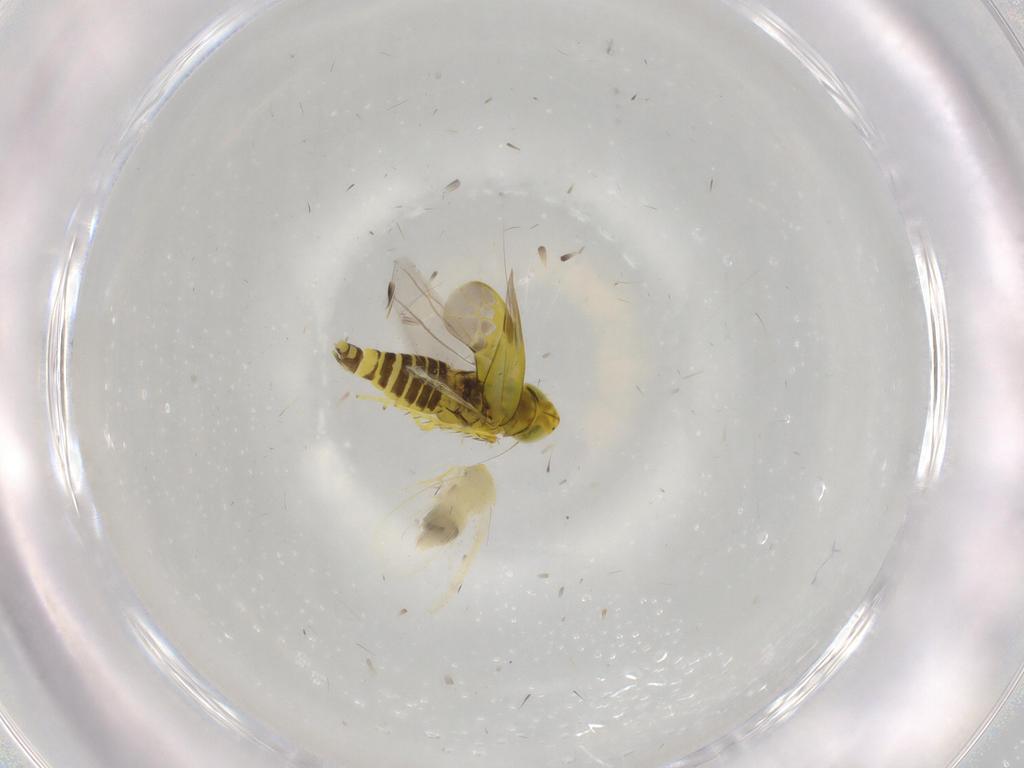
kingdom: Animalia
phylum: Arthropoda
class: Insecta
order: Hemiptera
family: Aleyrodidae
